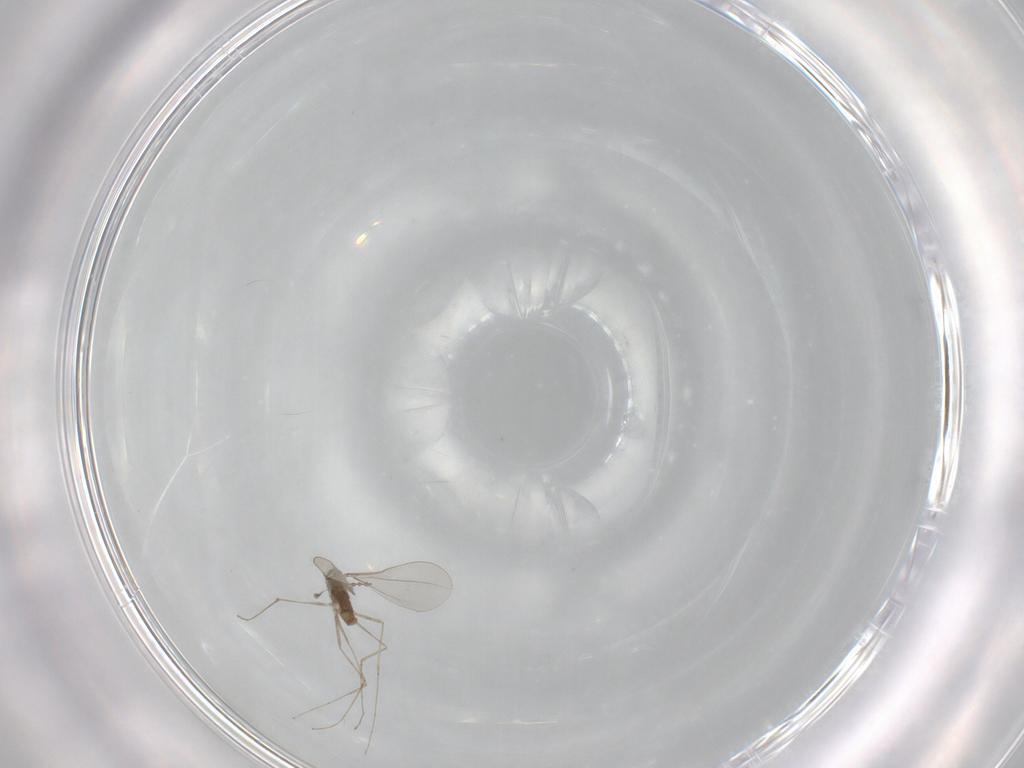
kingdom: Animalia
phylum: Arthropoda
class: Insecta
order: Diptera
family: Cecidomyiidae
